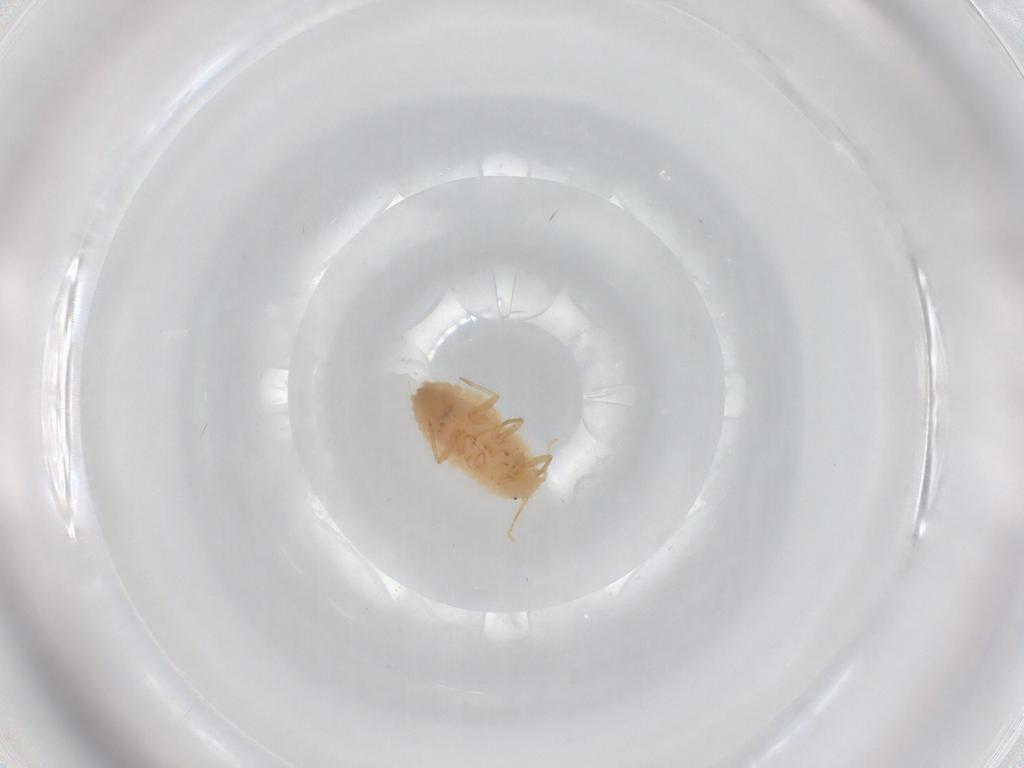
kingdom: Animalia
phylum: Arthropoda
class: Insecta
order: Hemiptera
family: Pseudococcidae
